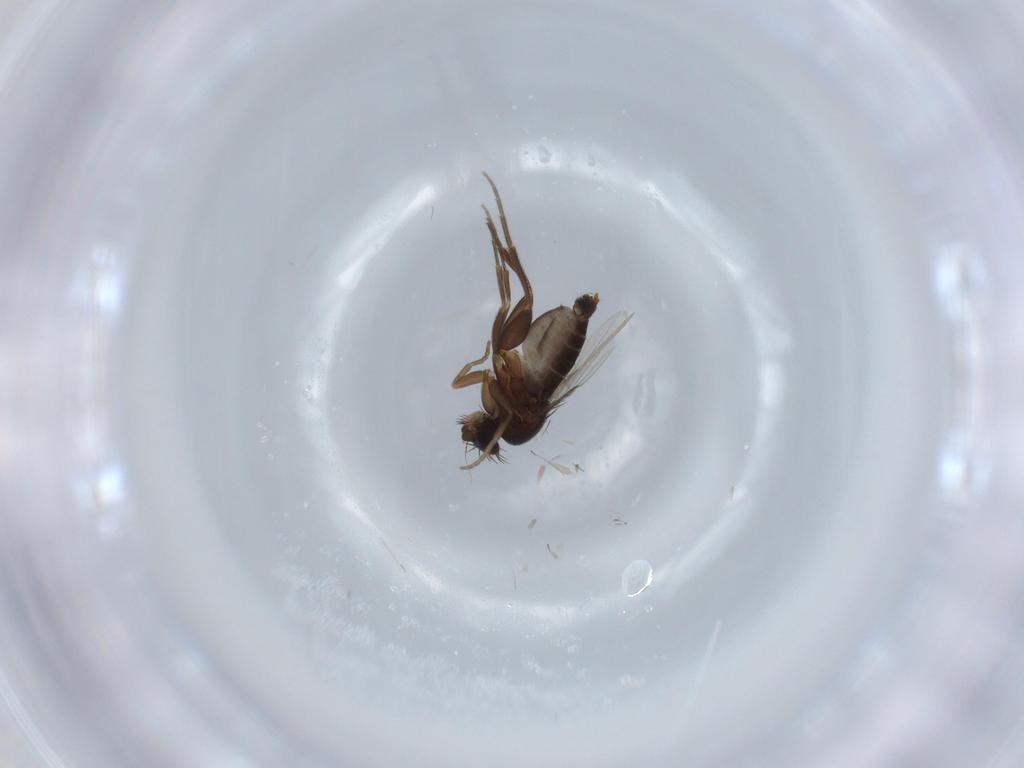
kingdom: Animalia
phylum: Arthropoda
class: Insecta
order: Diptera
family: Phoridae
